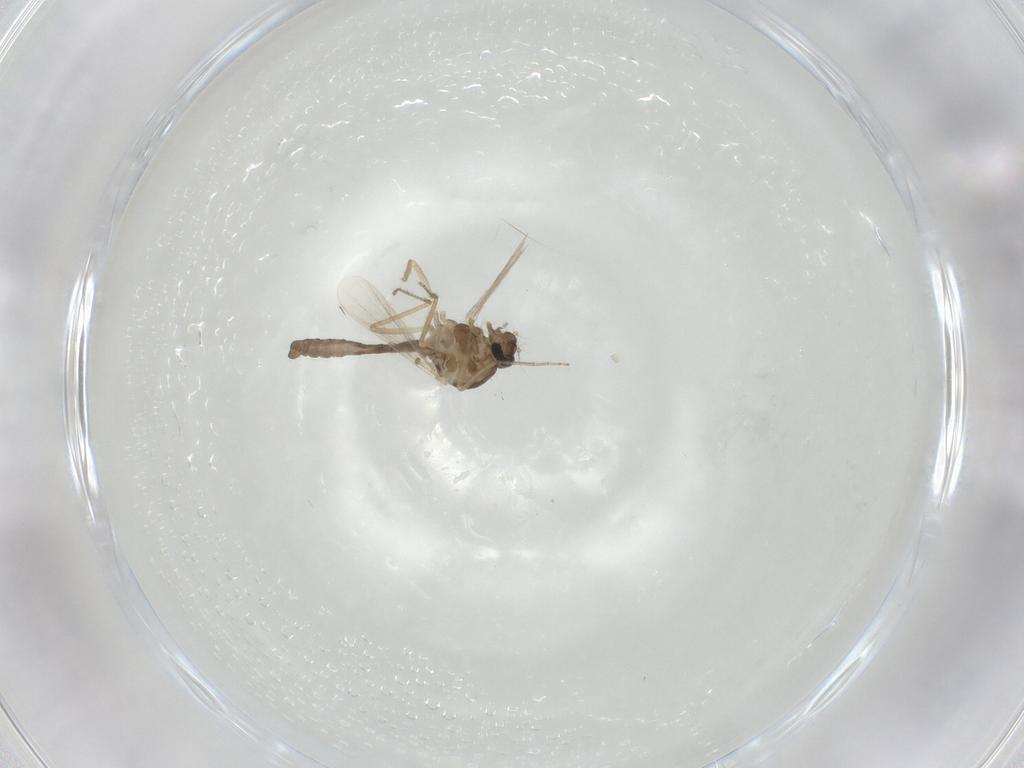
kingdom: Animalia
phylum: Arthropoda
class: Insecta
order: Diptera
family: Ceratopogonidae
